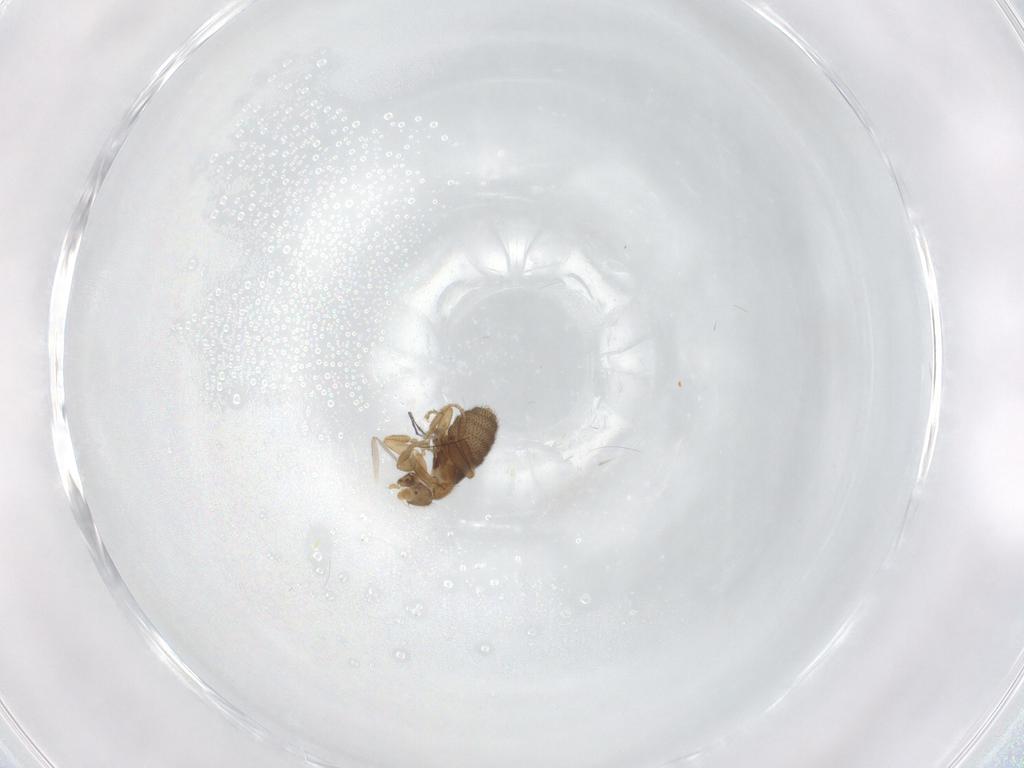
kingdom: Animalia
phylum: Arthropoda
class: Insecta
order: Diptera
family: Chironomidae
